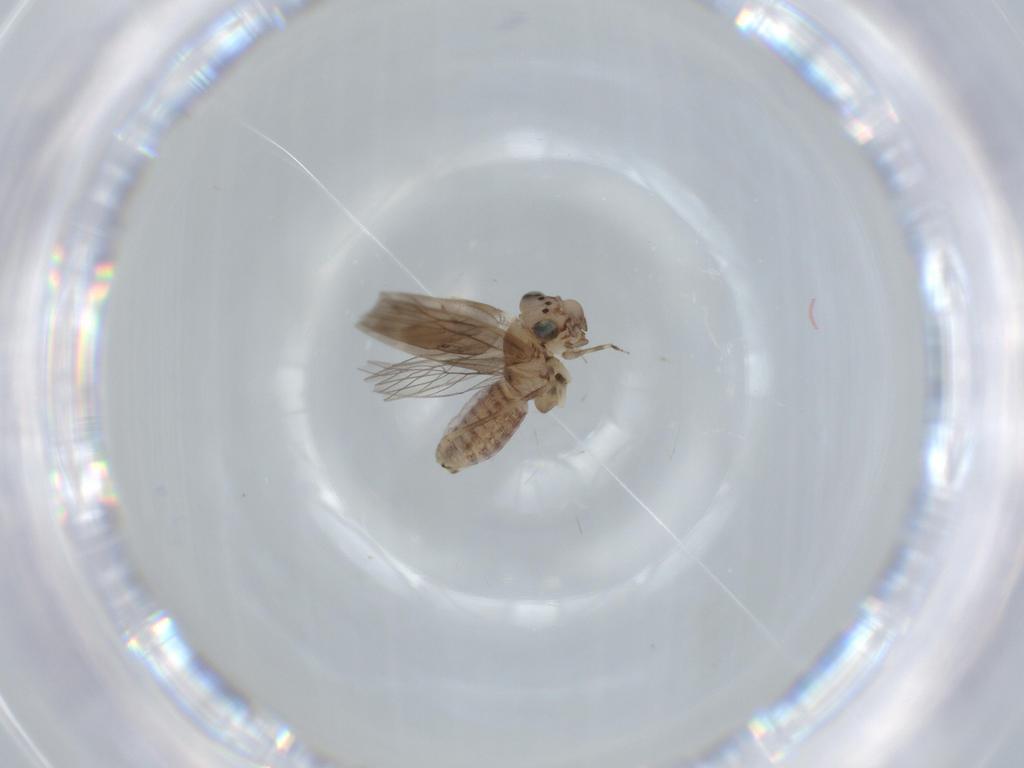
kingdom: Animalia
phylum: Arthropoda
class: Insecta
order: Psocodea
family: Lepidopsocidae
